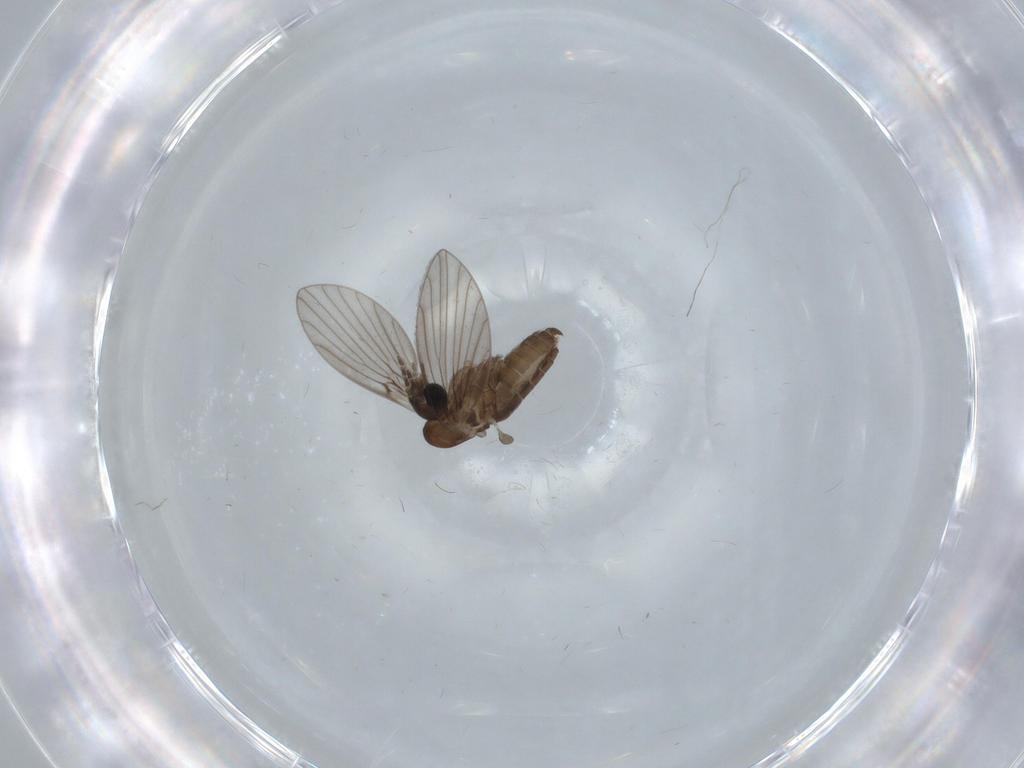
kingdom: Animalia
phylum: Arthropoda
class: Insecta
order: Diptera
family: Psychodidae
